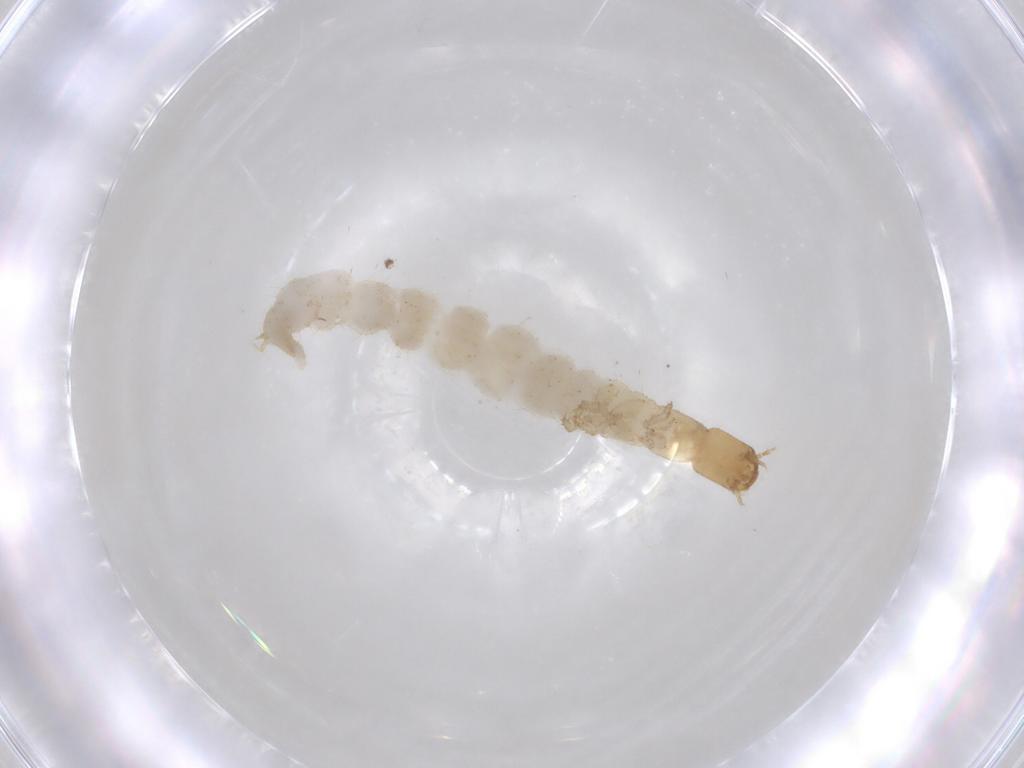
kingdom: Animalia
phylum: Arthropoda
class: Insecta
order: Coleoptera
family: Staphylinidae
